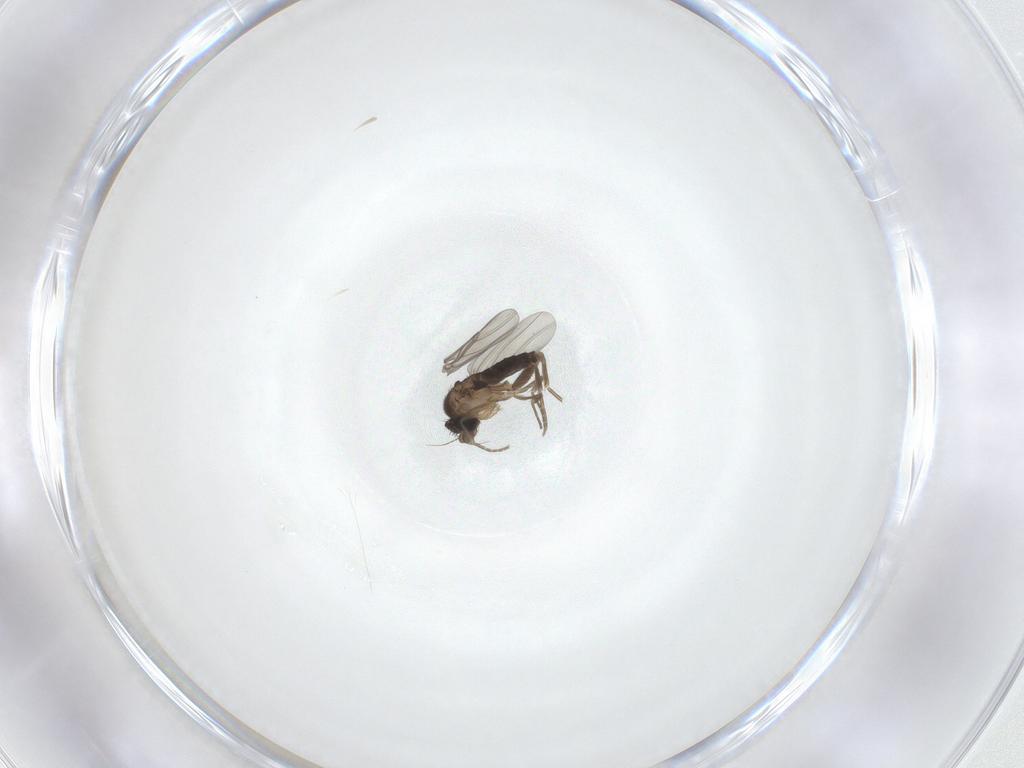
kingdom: Animalia
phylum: Arthropoda
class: Insecta
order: Diptera
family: Phoridae
